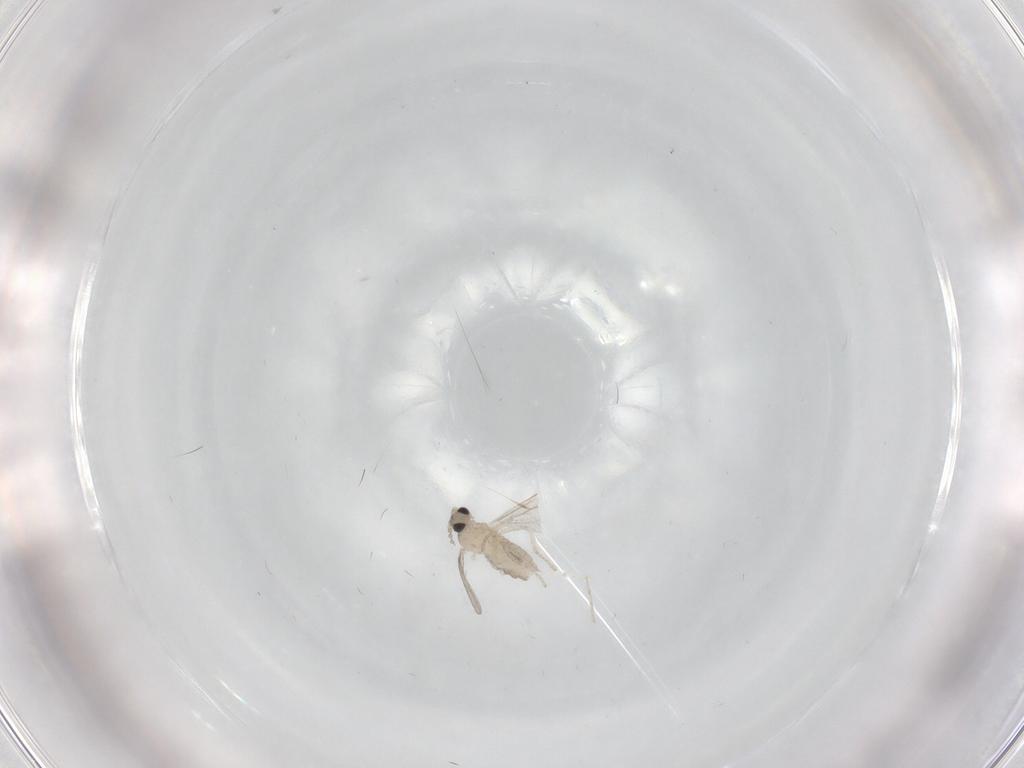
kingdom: Animalia
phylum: Arthropoda
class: Insecta
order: Diptera
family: Cecidomyiidae
